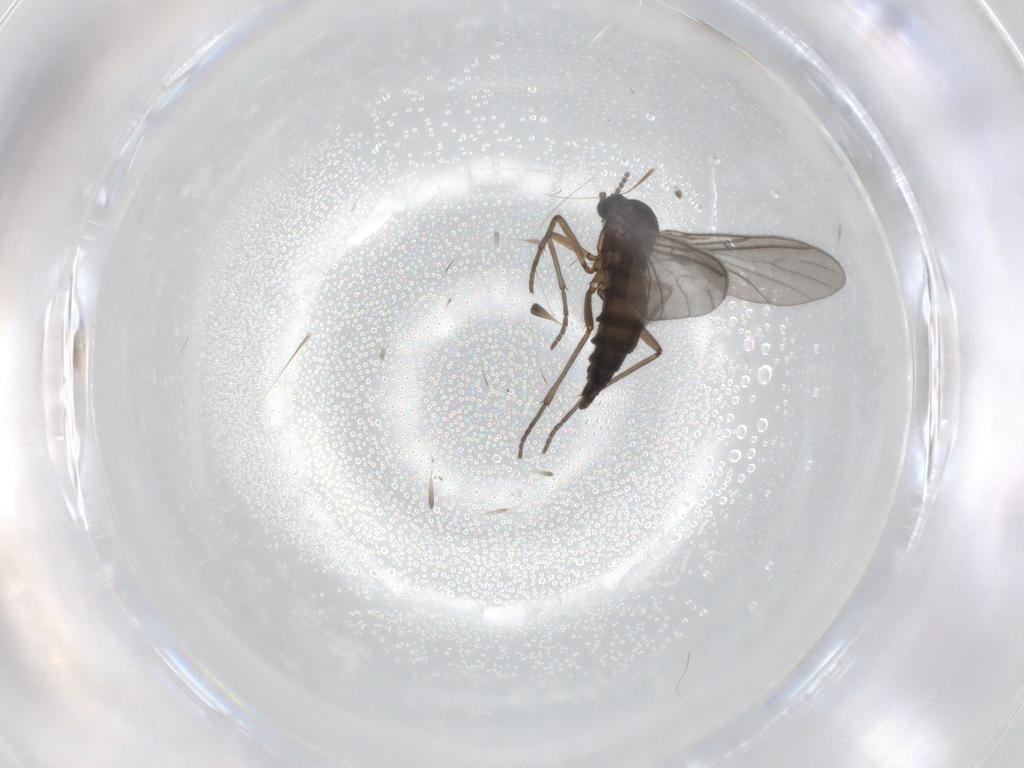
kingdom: Animalia
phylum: Arthropoda
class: Insecta
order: Diptera
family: Sciaridae
